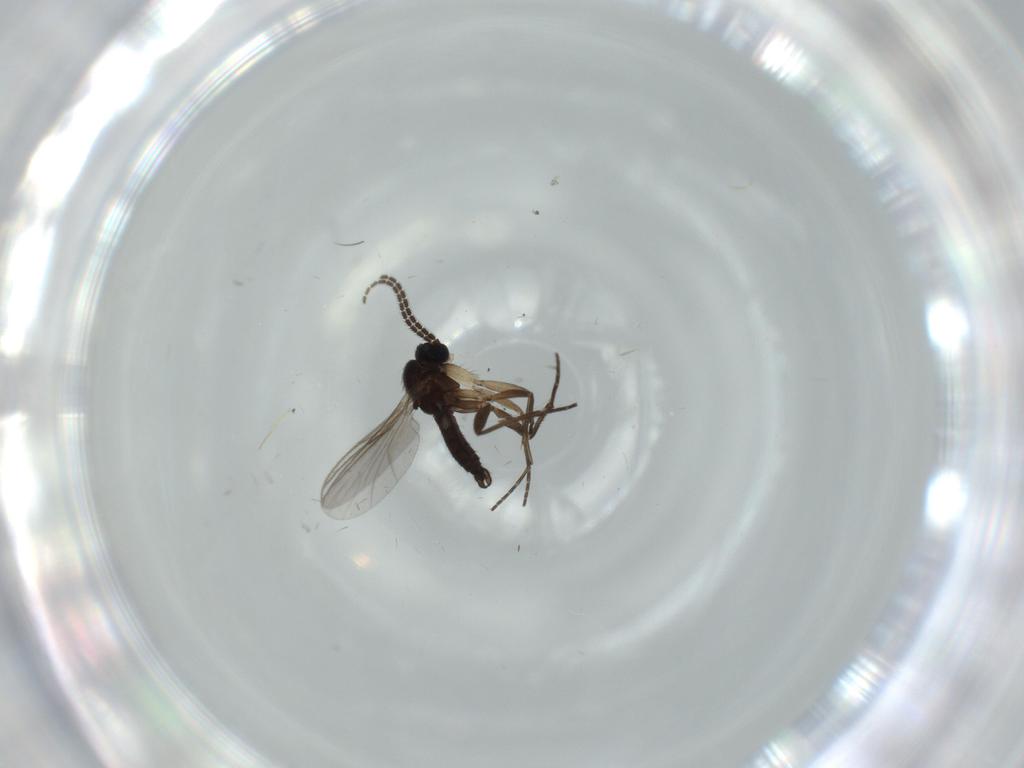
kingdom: Animalia
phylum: Arthropoda
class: Insecta
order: Diptera
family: Sciaridae
